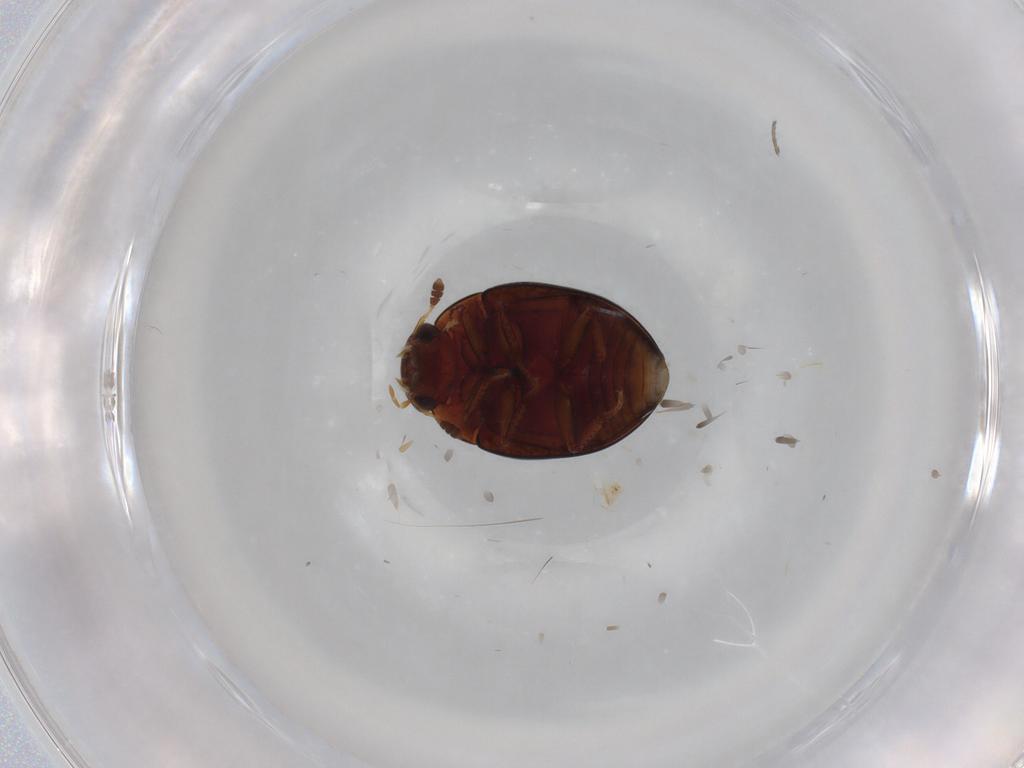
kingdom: Animalia
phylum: Arthropoda
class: Insecta
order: Coleoptera
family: Hydrophilidae
